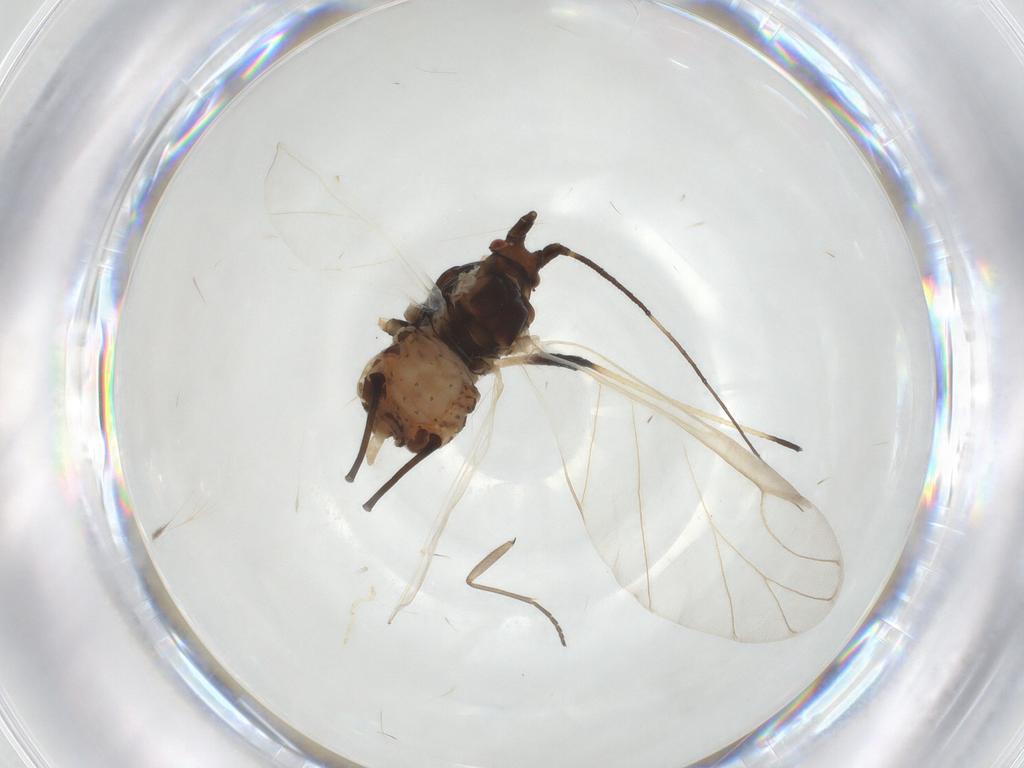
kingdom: Animalia
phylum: Arthropoda
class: Insecta
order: Hemiptera
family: Aphididae
